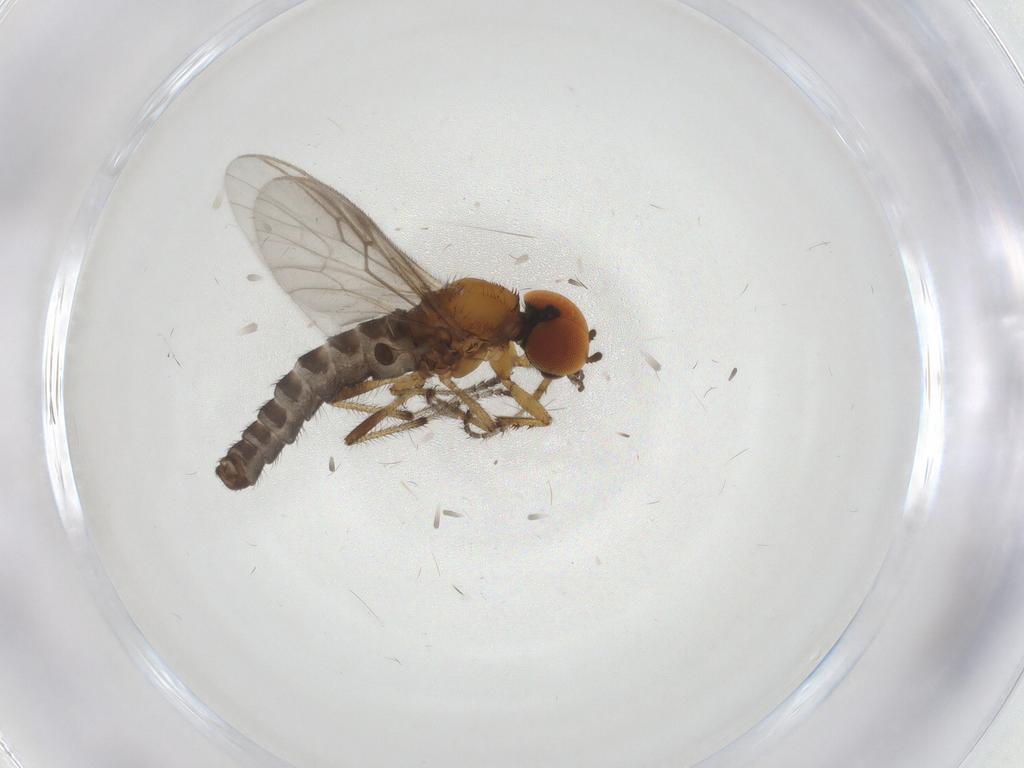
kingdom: Animalia
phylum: Arthropoda
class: Insecta
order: Diptera
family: Bibionidae
